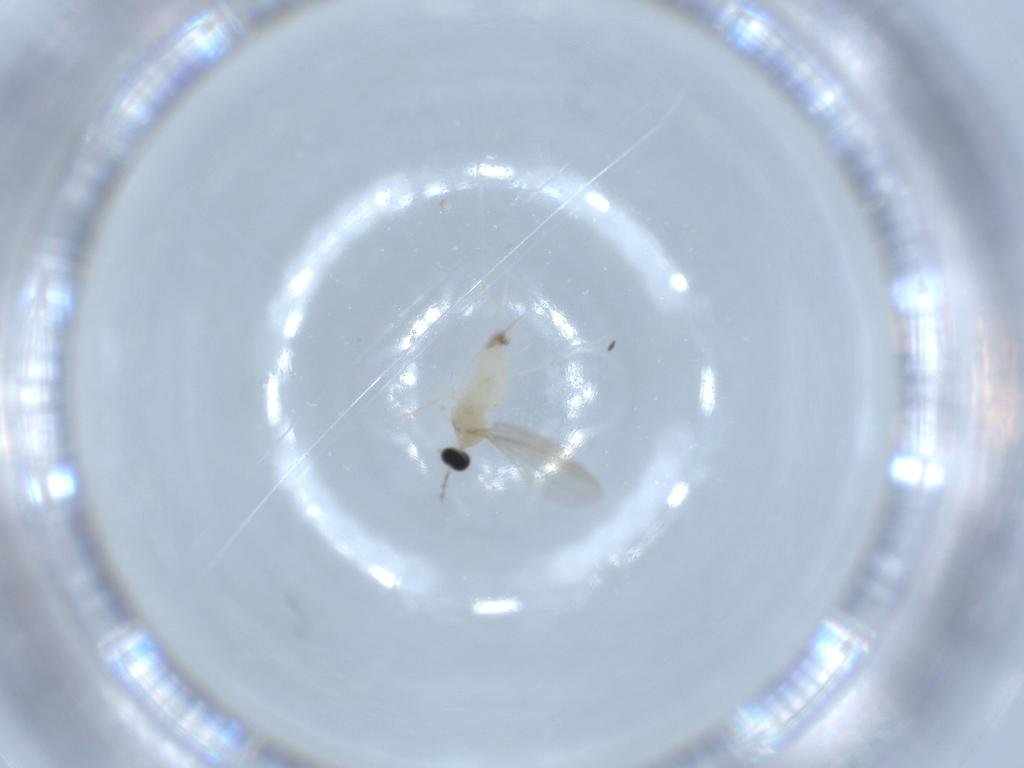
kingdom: Animalia
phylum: Arthropoda
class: Insecta
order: Diptera
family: Cecidomyiidae
